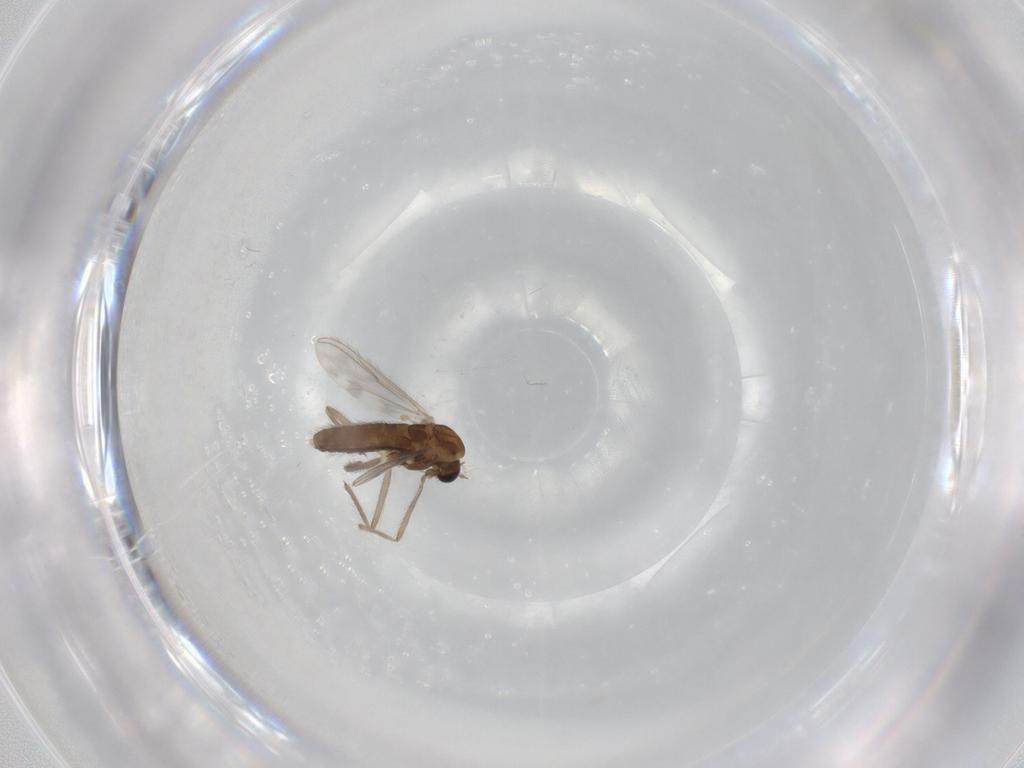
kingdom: Animalia
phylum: Arthropoda
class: Insecta
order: Diptera
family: Chironomidae
